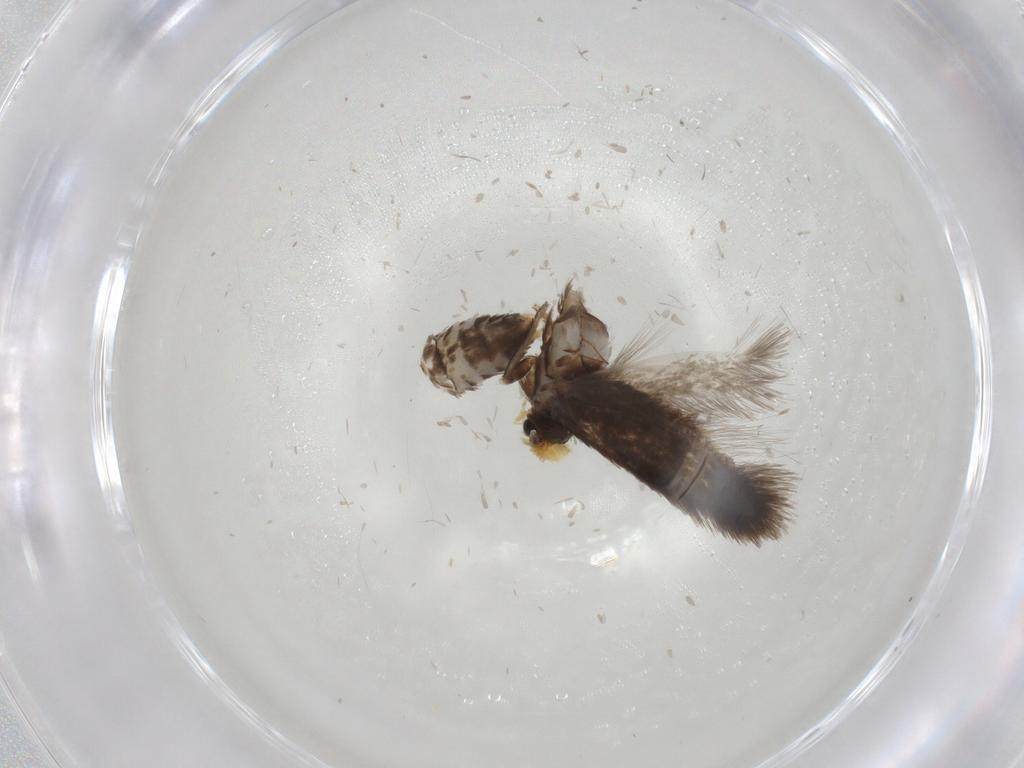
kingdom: Animalia
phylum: Arthropoda
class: Insecta
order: Lepidoptera
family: Nepticulidae
